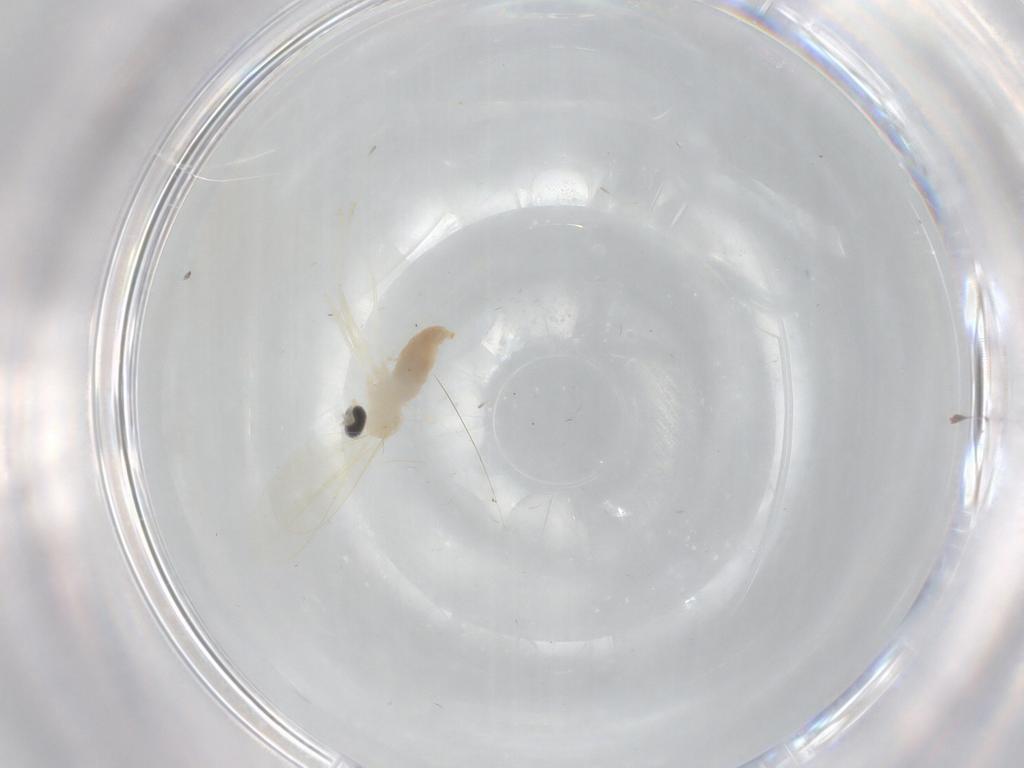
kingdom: Animalia
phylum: Arthropoda
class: Insecta
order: Diptera
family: Cecidomyiidae
